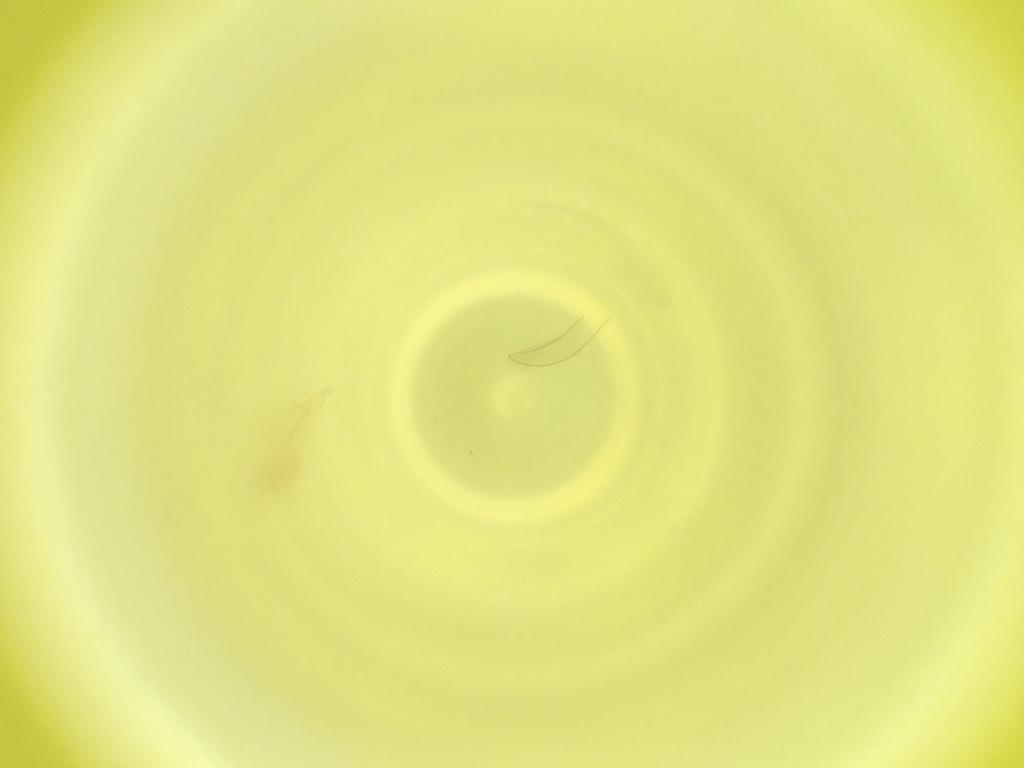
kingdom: Animalia
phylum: Arthropoda
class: Insecta
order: Diptera
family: Cecidomyiidae
